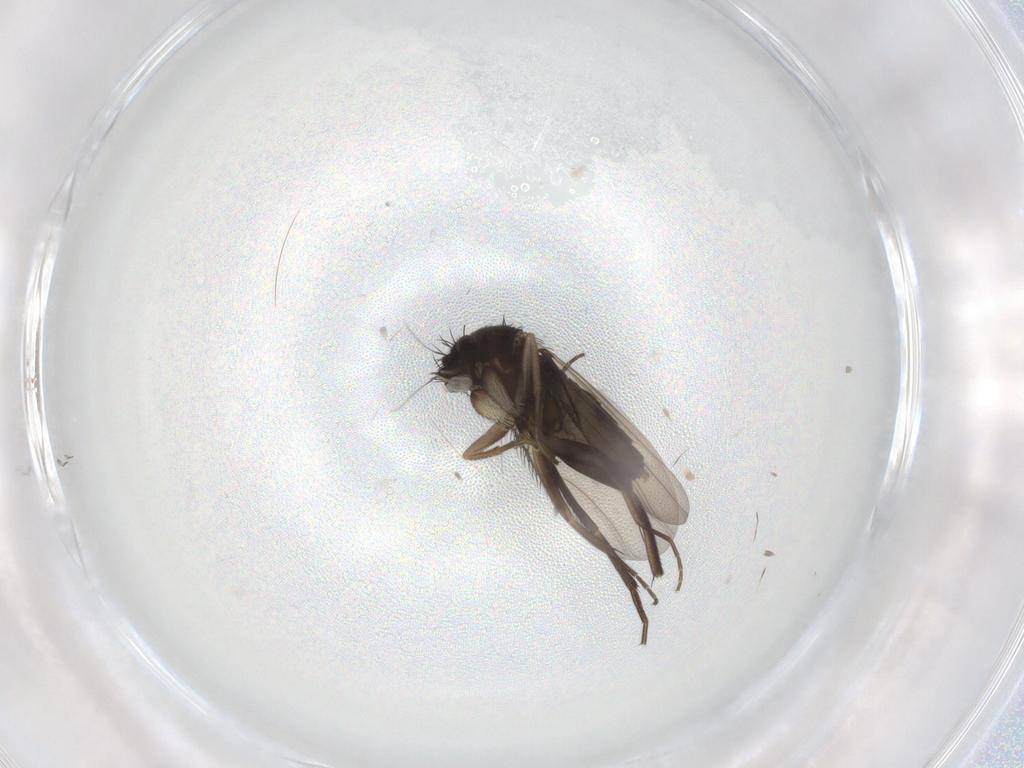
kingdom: Animalia
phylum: Arthropoda
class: Insecta
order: Diptera
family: Phoridae
